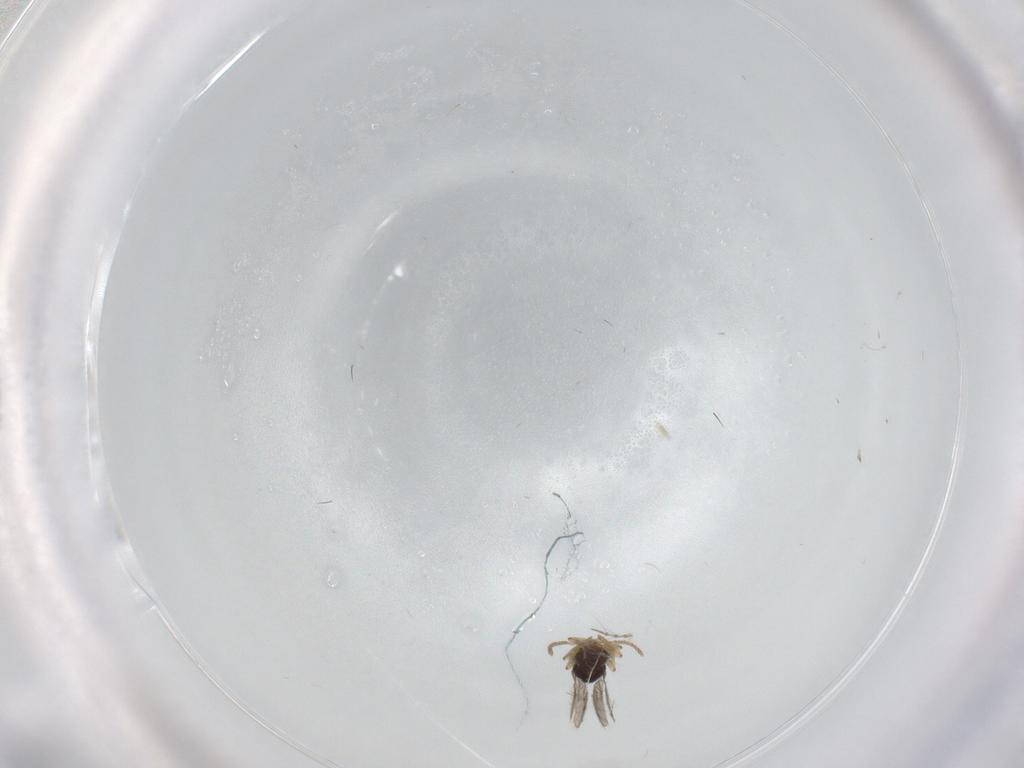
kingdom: Animalia
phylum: Arthropoda
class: Insecta
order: Hymenoptera
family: Scelionidae
